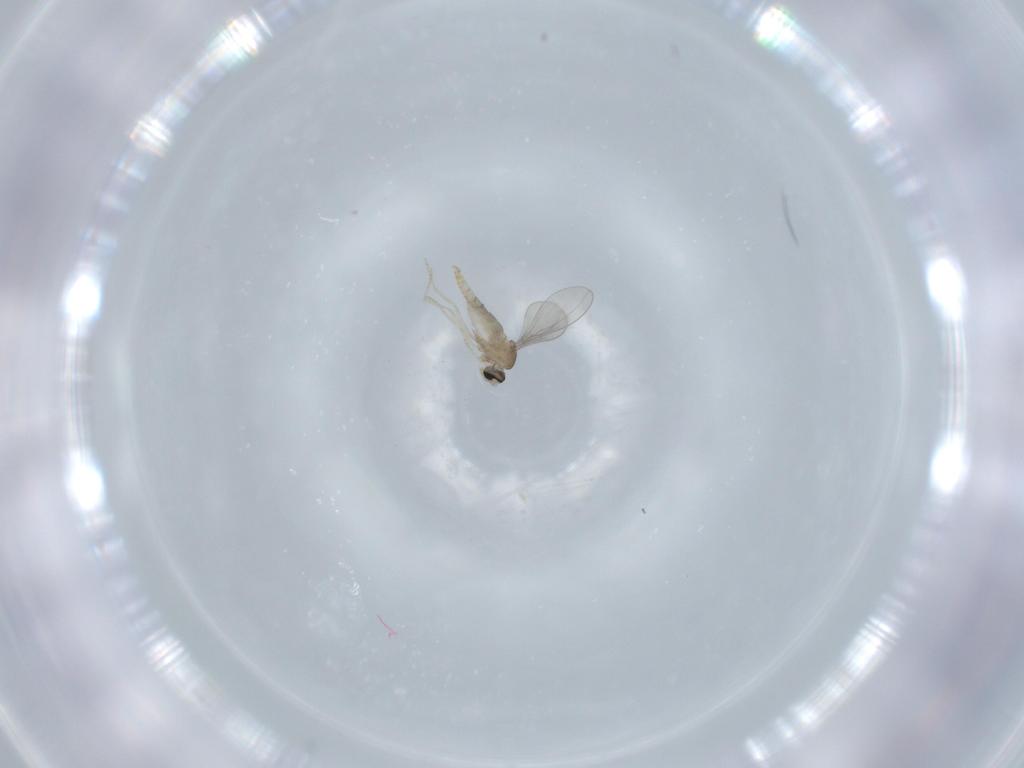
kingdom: Animalia
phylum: Arthropoda
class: Insecta
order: Diptera
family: Cecidomyiidae
